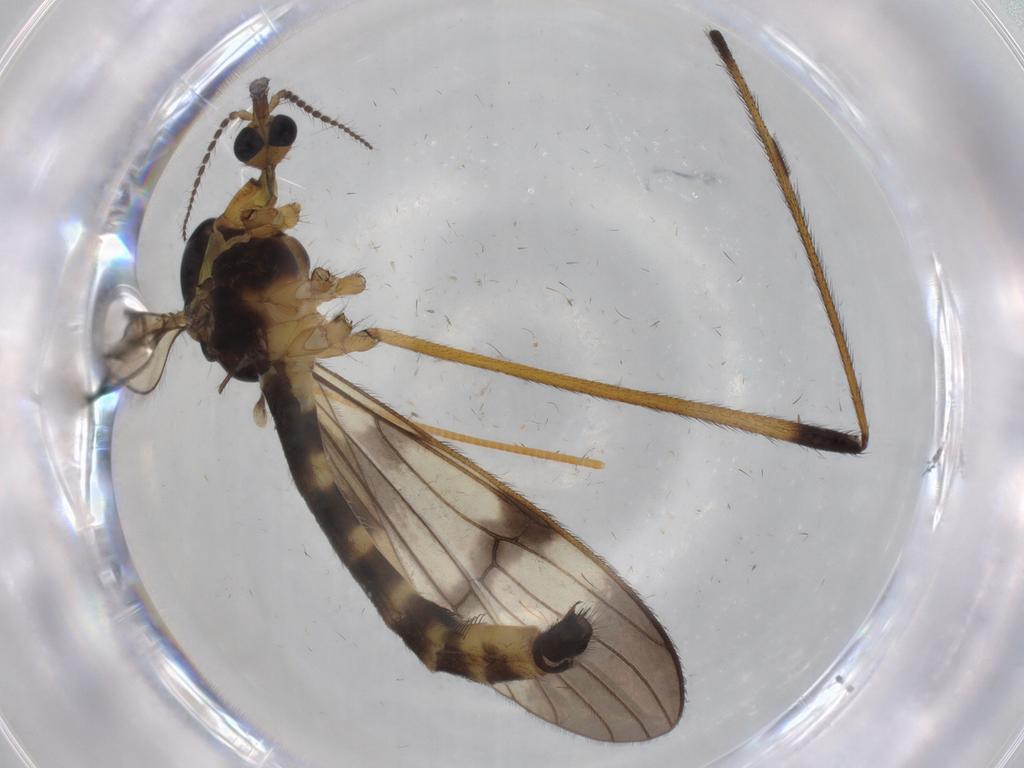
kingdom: Animalia
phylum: Arthropoda
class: Insecta
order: Diptera
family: Limoniidae
